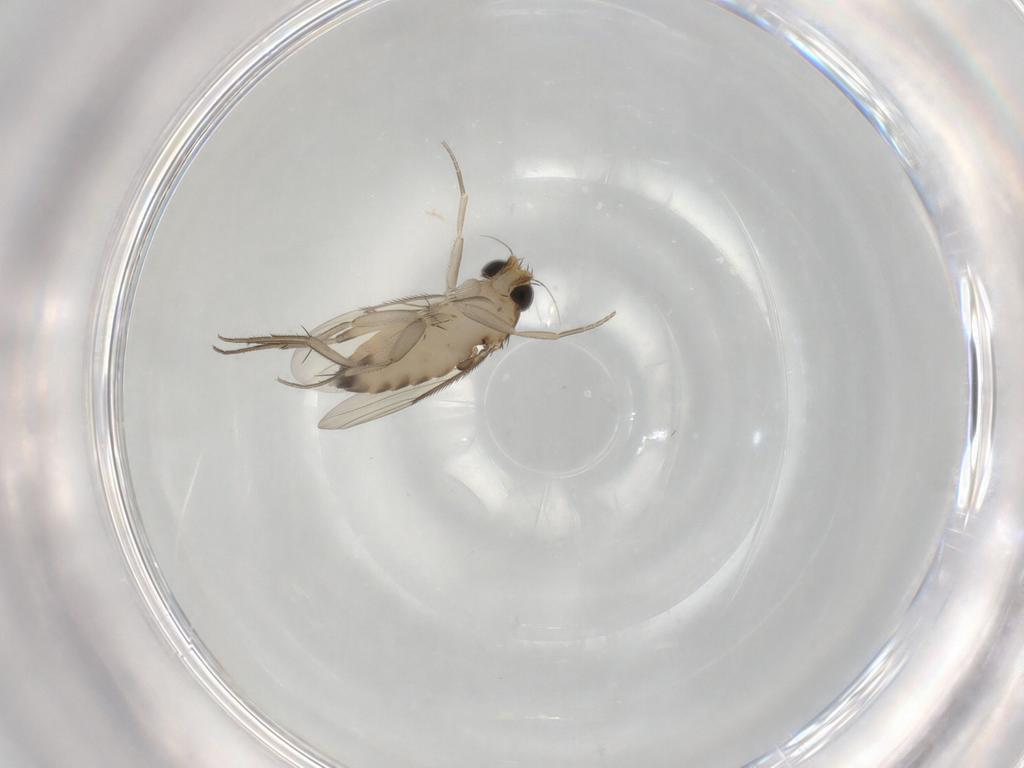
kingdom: Animalia
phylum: Arthropoda
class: Insecta
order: Diptera
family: Phoridae
